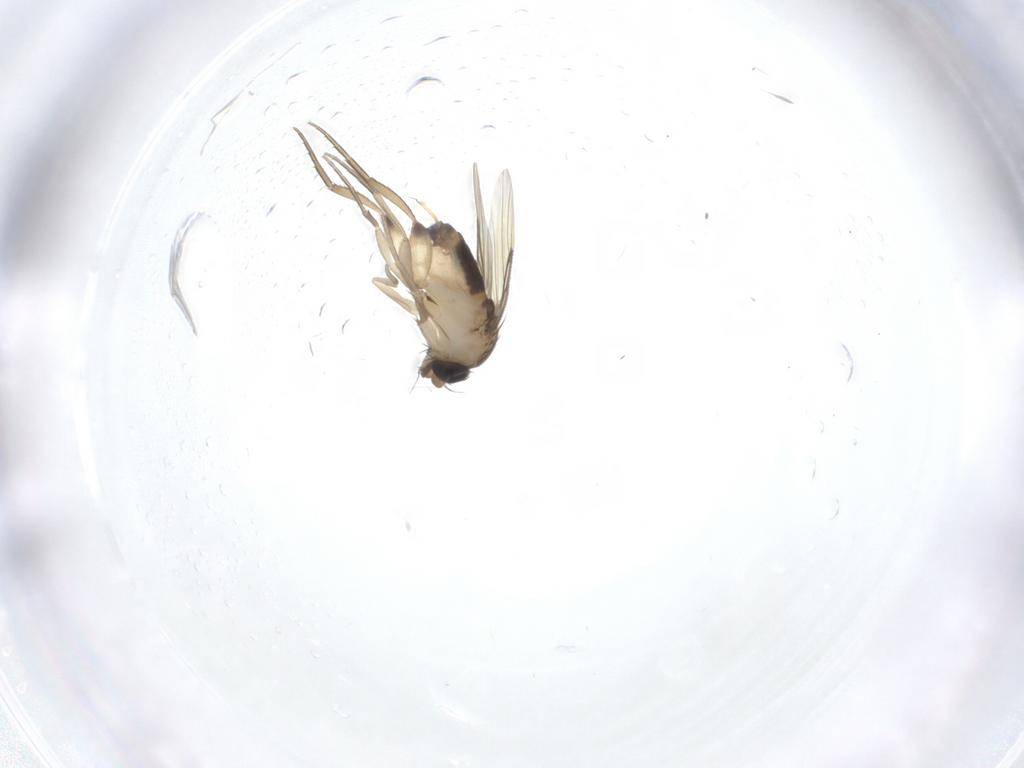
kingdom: Animalia
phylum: Arthropoda
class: Insecta
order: Diptera
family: Phoridae
